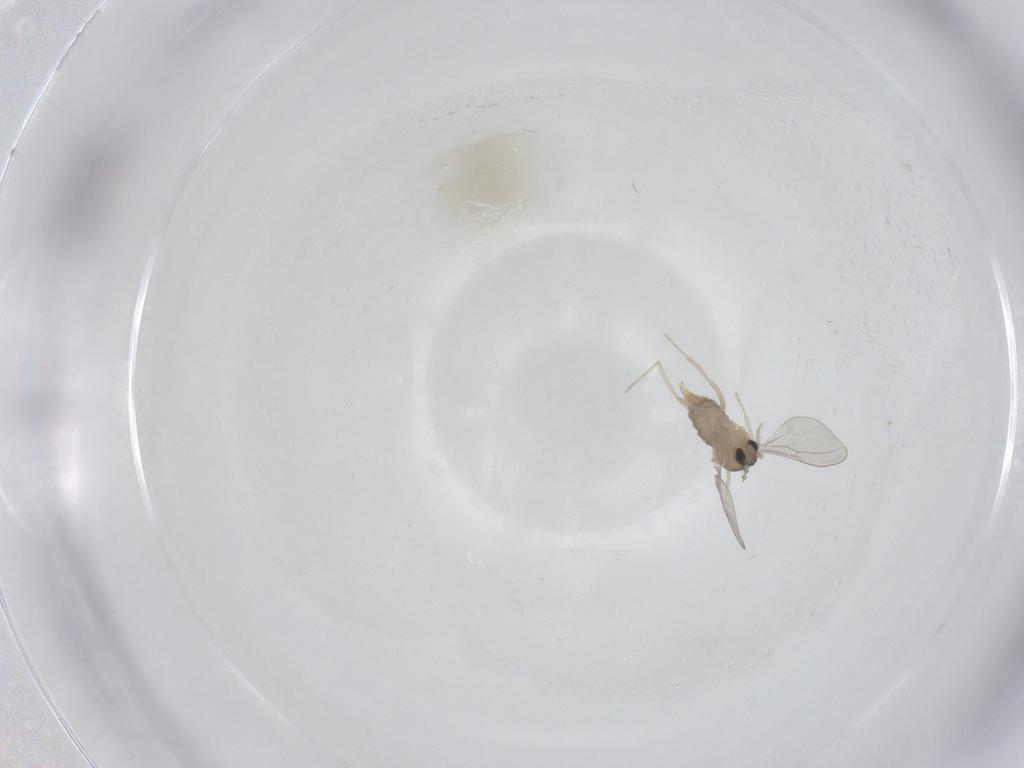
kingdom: Animalia
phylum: Arthropoda
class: Insecta
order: Diptera
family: Cecidomyiidae
